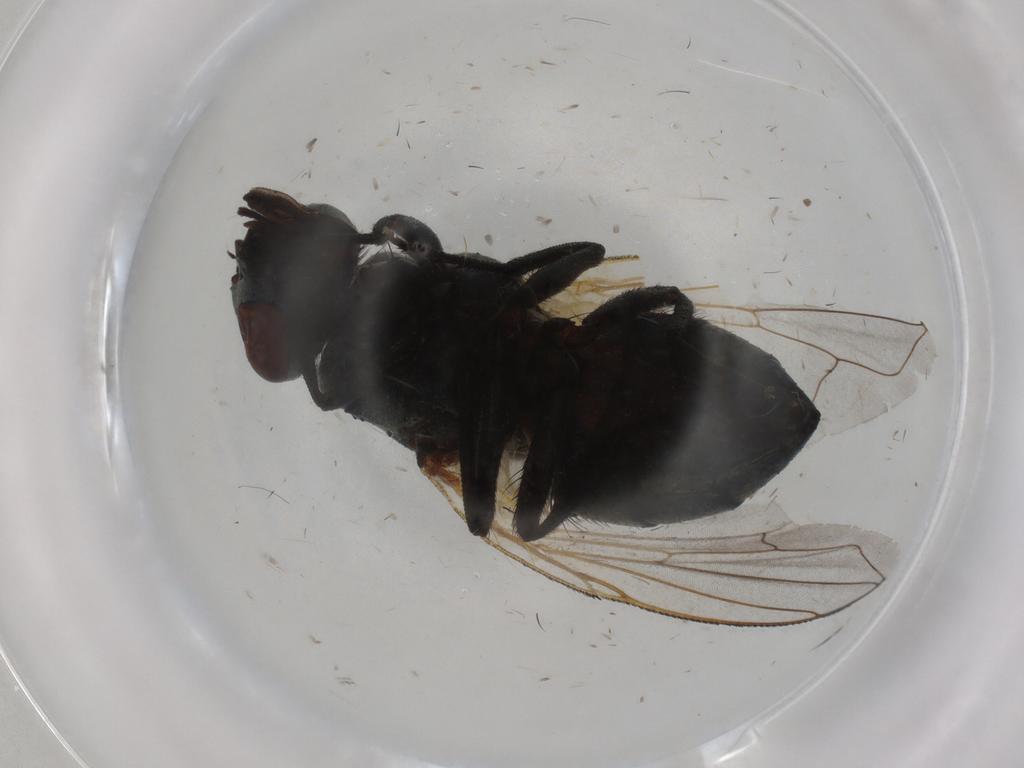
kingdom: Animalia
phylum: Arthropoda
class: Insecta
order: Diptera
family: Muscidae
